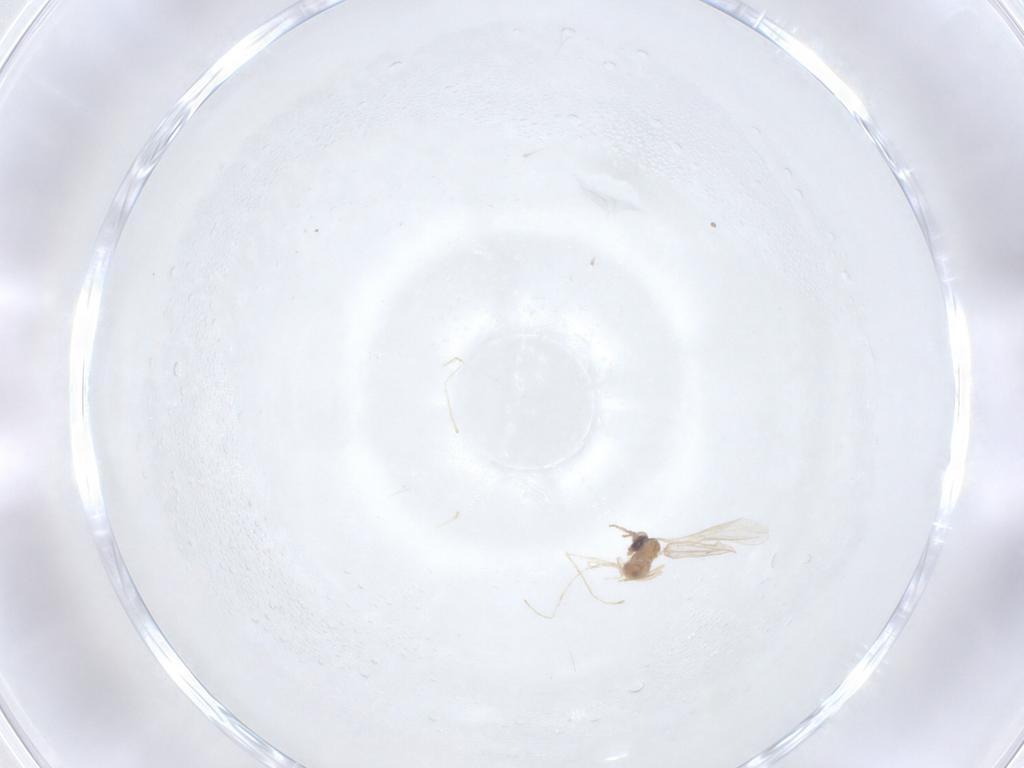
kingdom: Animalia
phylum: Arthropoda
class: Insecta
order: Diptera
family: Cecidomyiidae
